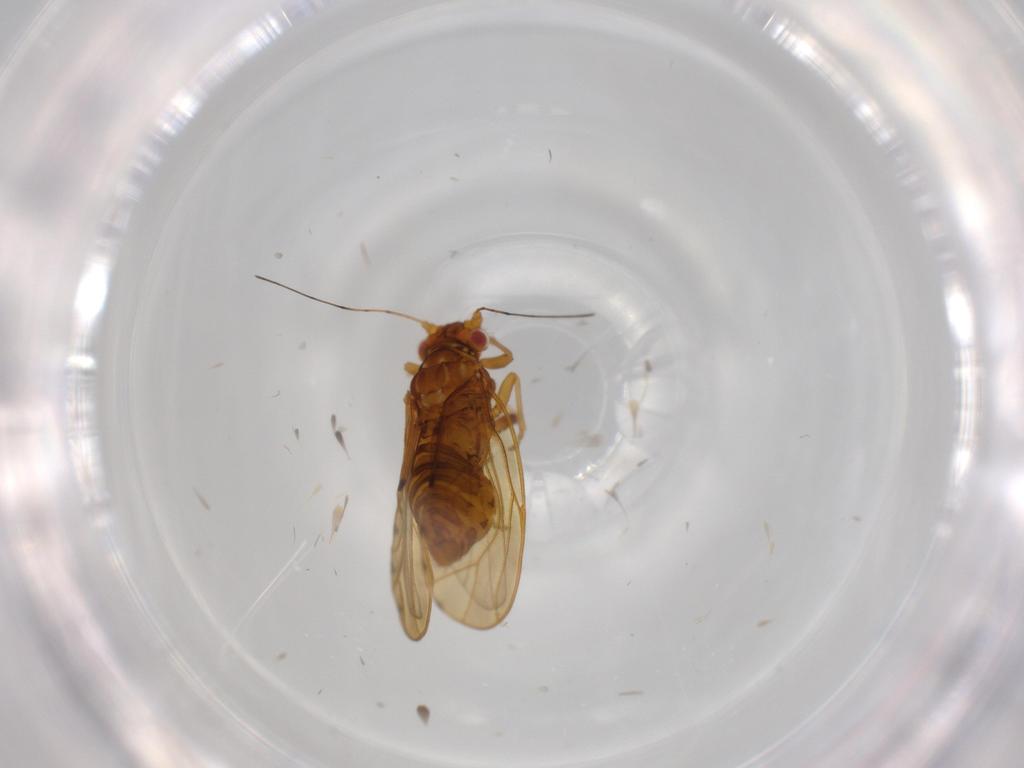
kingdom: Animalia
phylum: Arthropoda
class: Insecta
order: Hemiptera
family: Psylloidea_incertae_sedis
